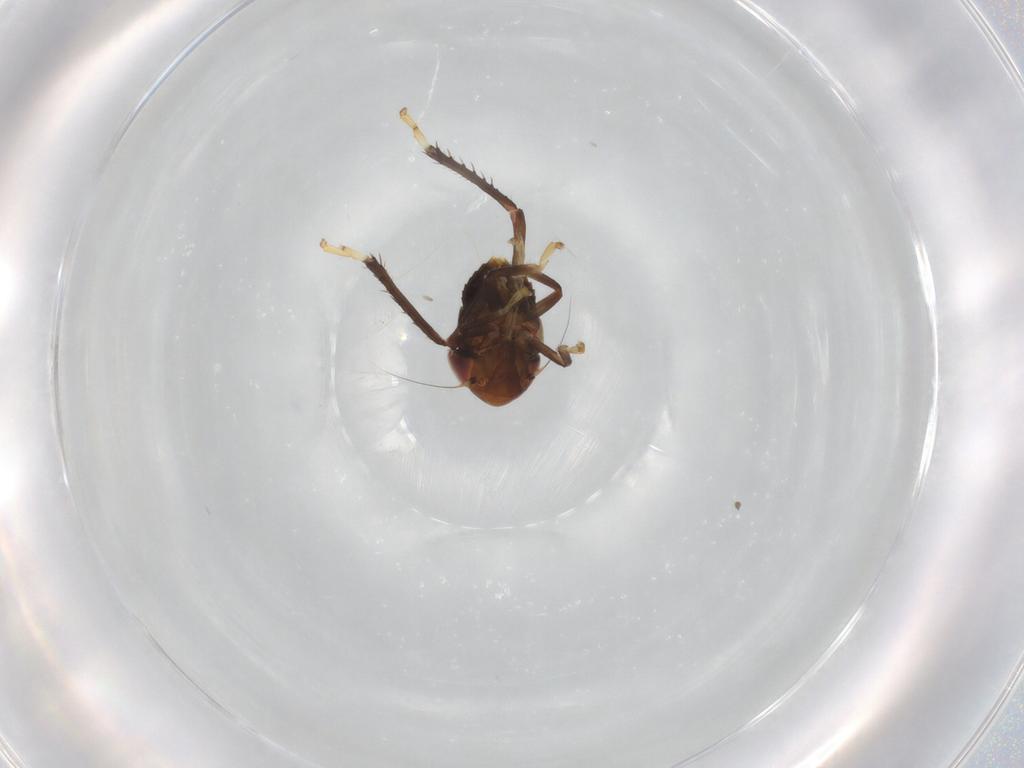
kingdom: Animalia
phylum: Arthropoda
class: Insecta
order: Hemiptera
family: Cicadellidae
